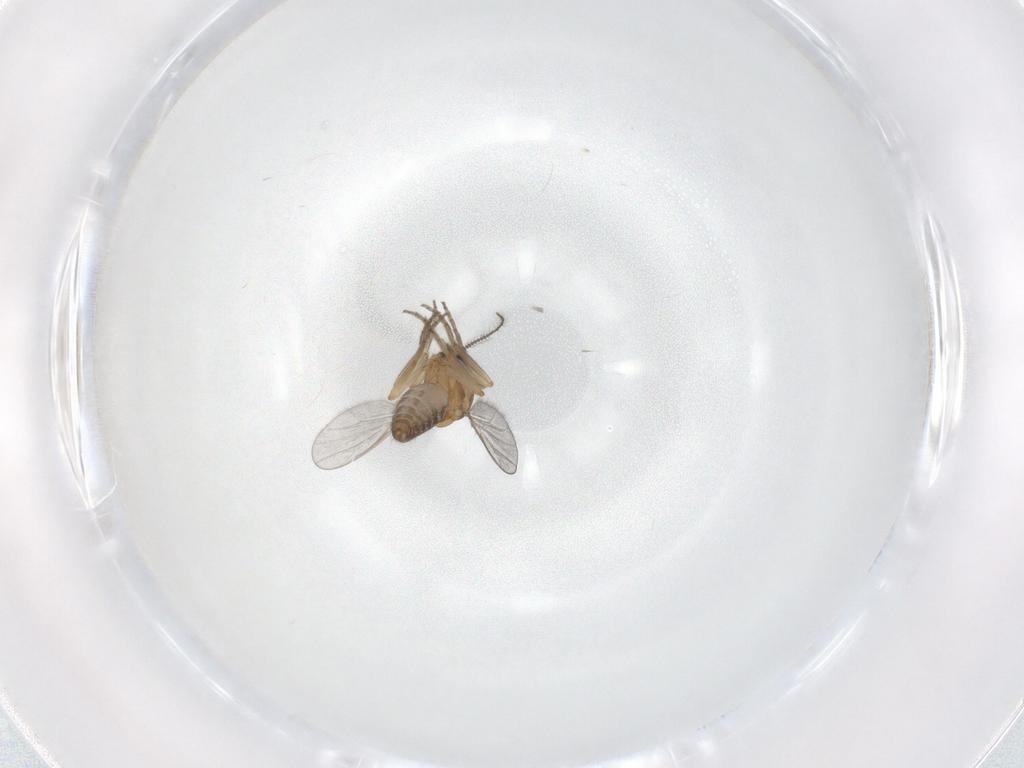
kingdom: Animalia
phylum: Arthropoda
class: Insecta
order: Diptera
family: Ceratopogonidae
